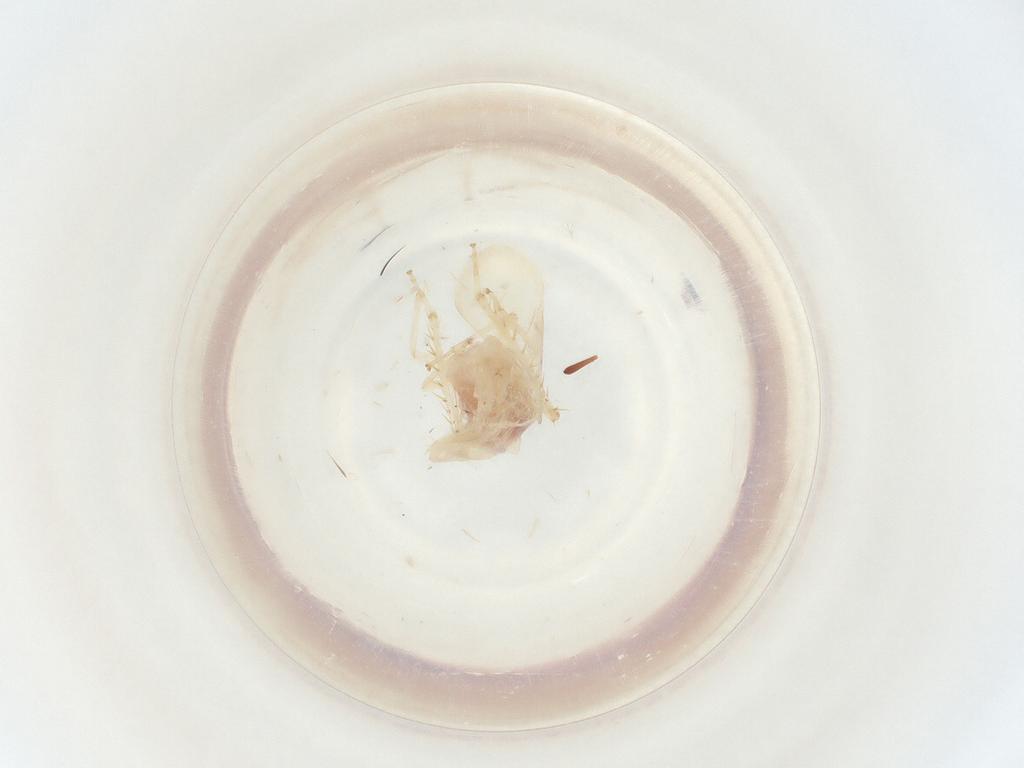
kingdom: Animalia
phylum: Arthropoda
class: Insecta
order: Hemiptera
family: Cicadellidae
